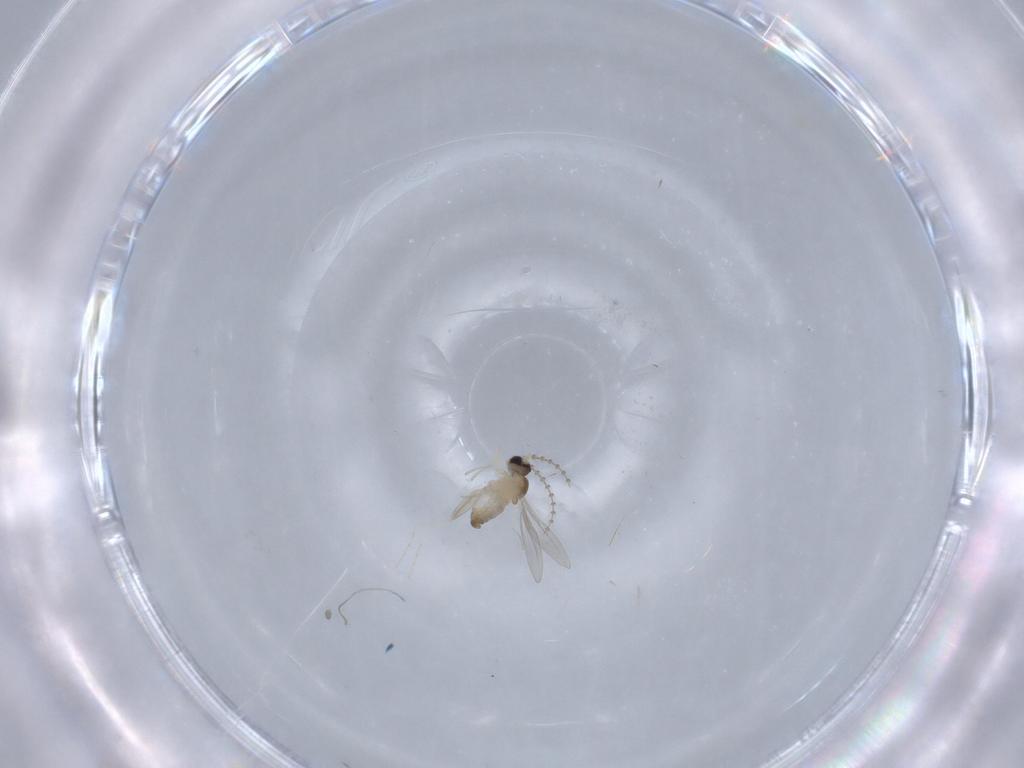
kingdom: Animalia
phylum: Arthropoda
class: Insecta
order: Diptera
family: Cecidomyiidae
